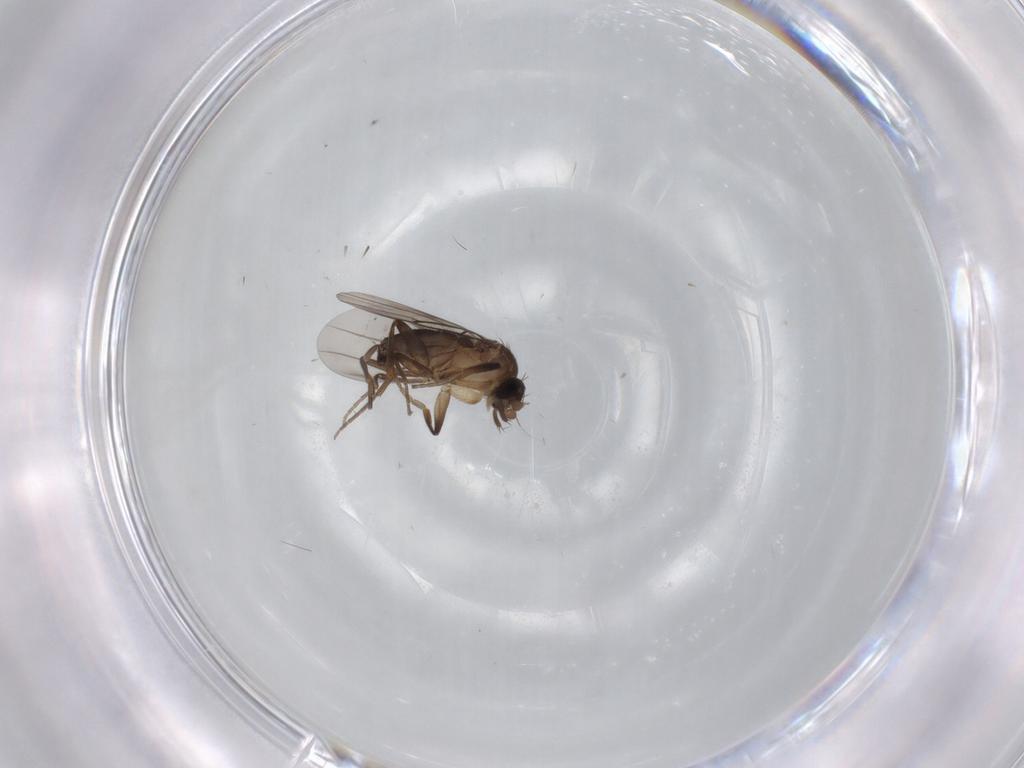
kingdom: Animalia
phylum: Arthropoda
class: Insecta
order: Diptera
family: Phoridae
